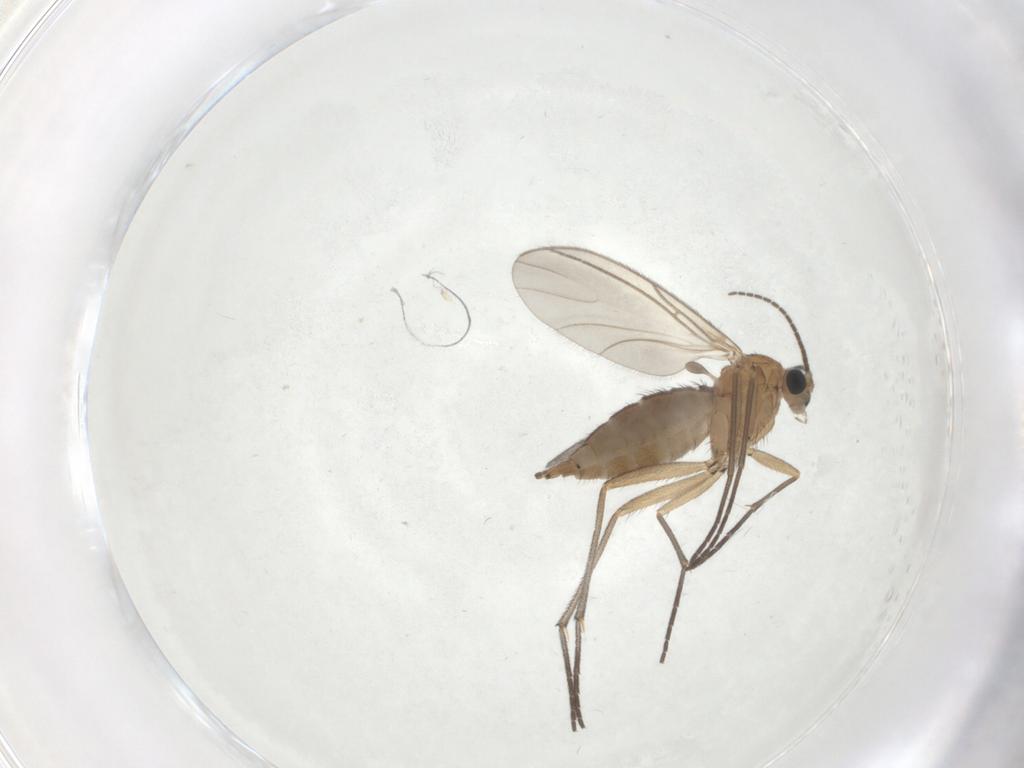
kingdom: Animalia
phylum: Arthropoda
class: Insecta
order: Diptera
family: Sciaridae
